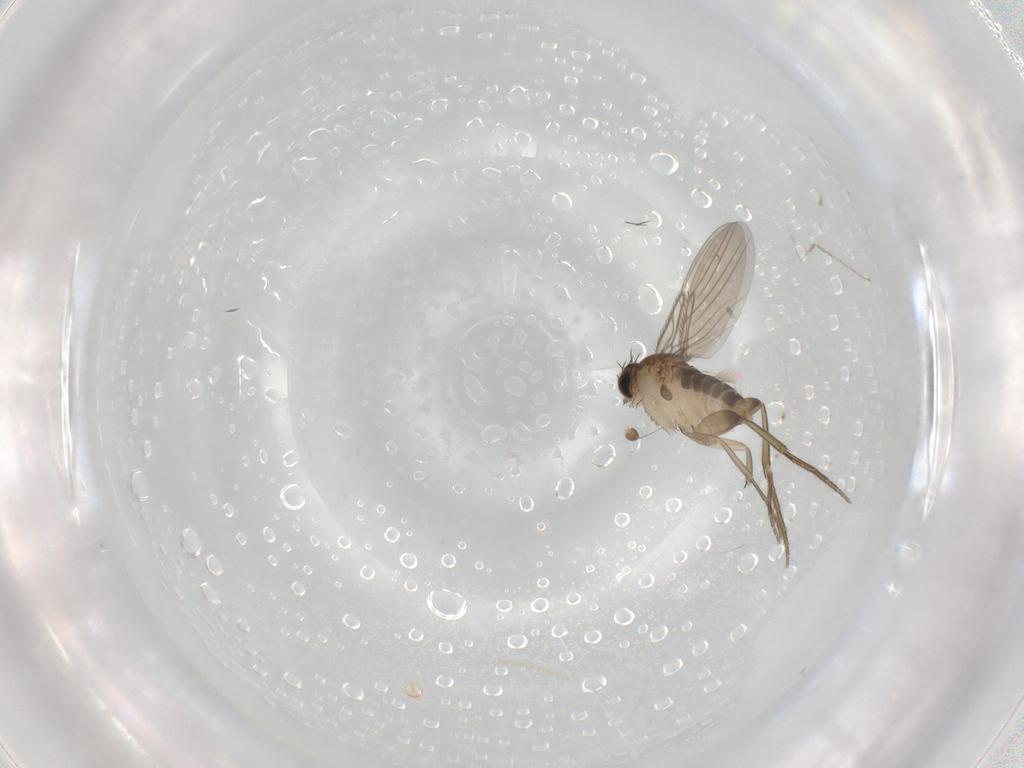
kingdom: Animalia
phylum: Arthropoda
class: Insecta
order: Diptera
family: Phoridae
